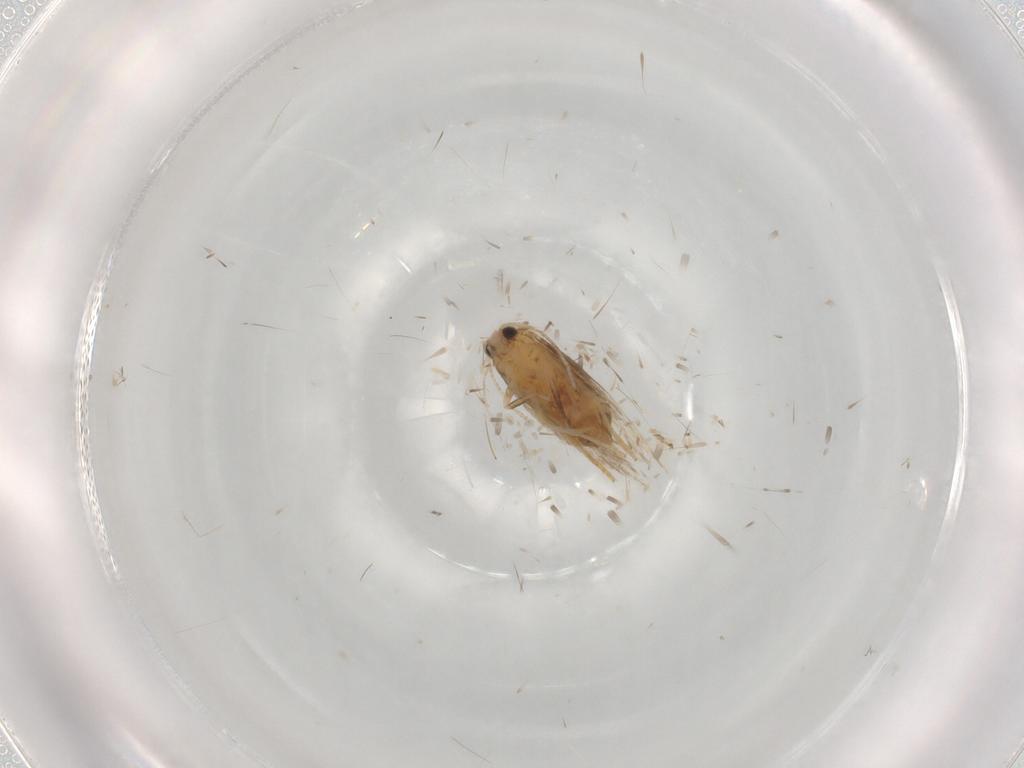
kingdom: Animalia
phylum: Arthropoda
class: Insecta
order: Lepidoptera
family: Nepticulidae
